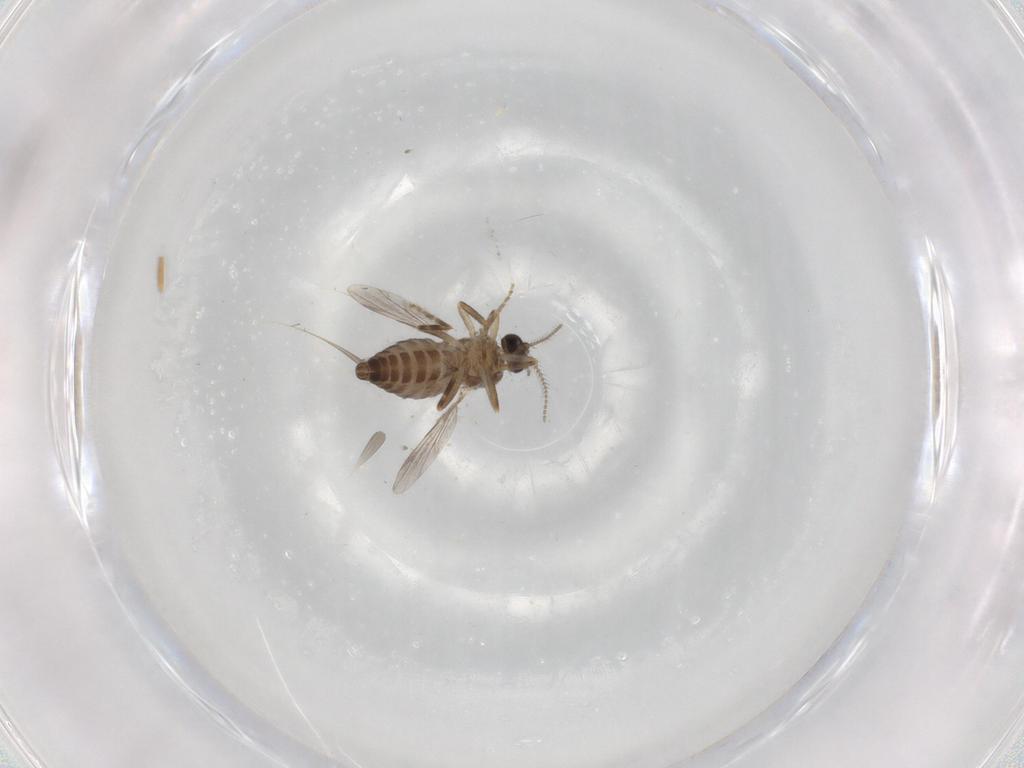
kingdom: Animalia
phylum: Arthropoda
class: Insecta
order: Diptera
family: Ceratopogonidae
